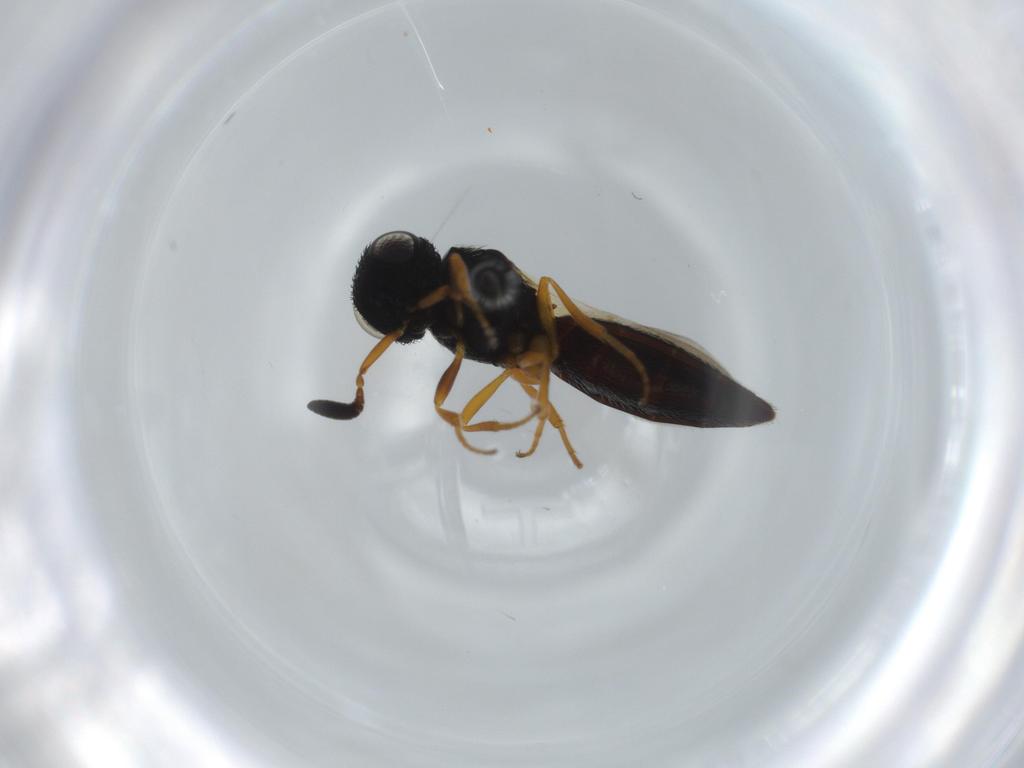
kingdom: Animalia
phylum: Arthropoda
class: Insecta
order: Hymenoptera
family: Scelionidae
